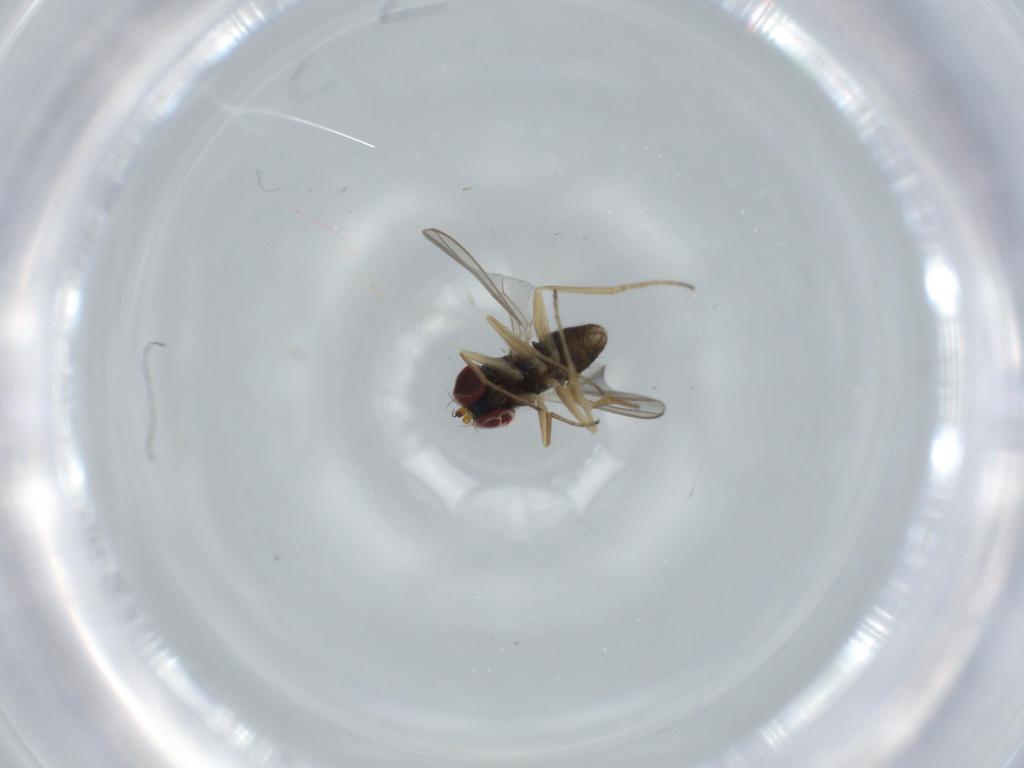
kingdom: Animalia
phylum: Arthropoda
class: Insecta
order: Diptera
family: Dolichopodidae
